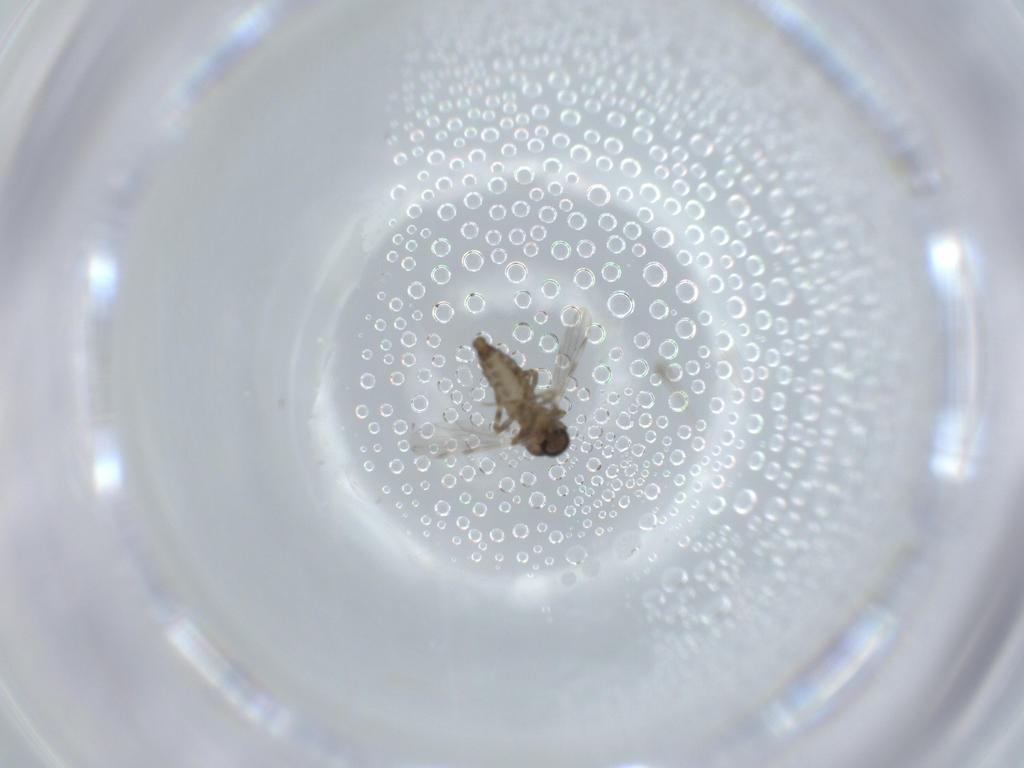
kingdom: Animalia
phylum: Arthropoda
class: Insecta
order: Diptera
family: Ceratopogonidae
